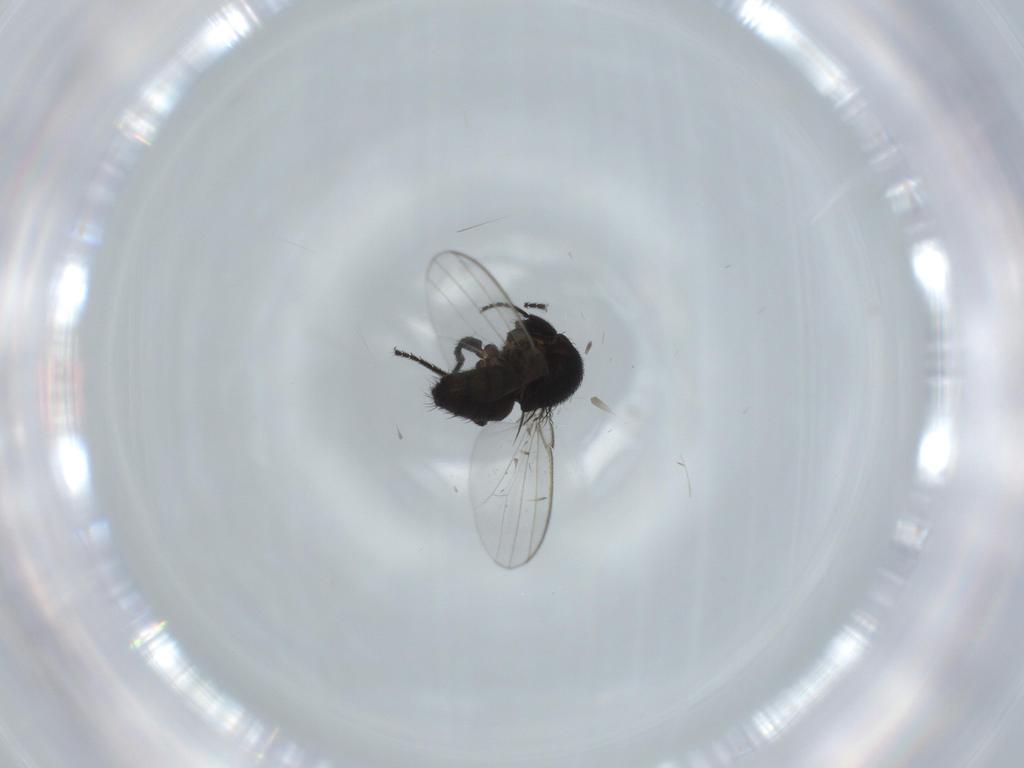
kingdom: Animalia
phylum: Arthropoda
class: Insecta
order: Diptera
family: Milichiidae
